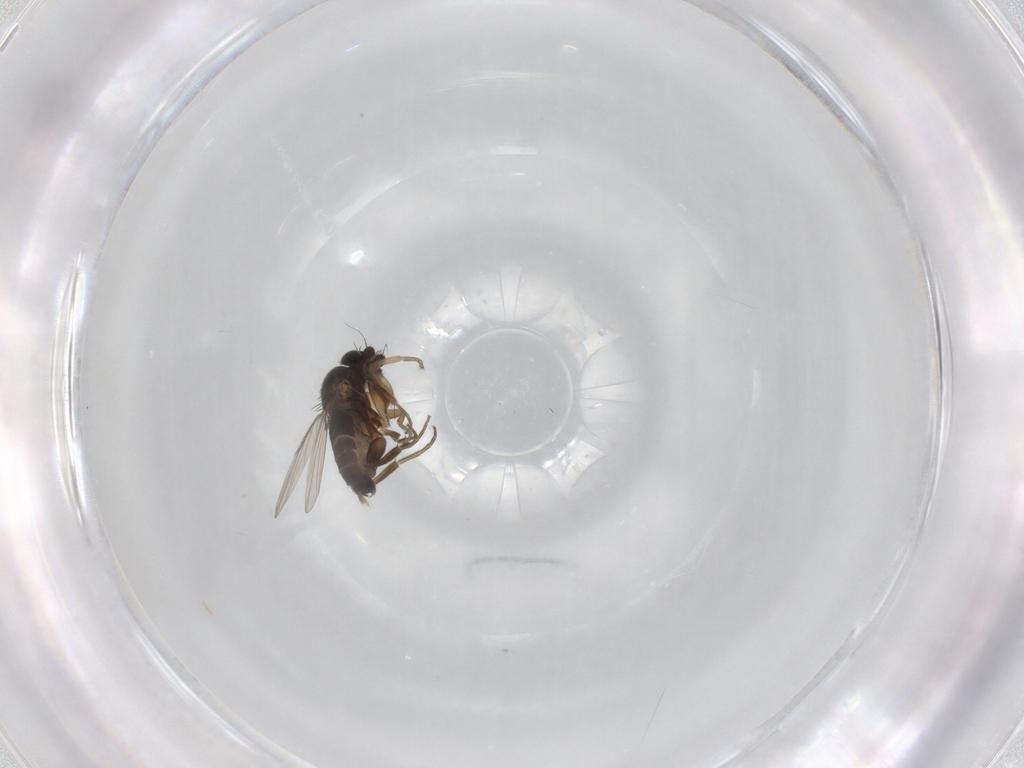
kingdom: Animalia
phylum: Arthropoda
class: Insecta
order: Diptera
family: Phoridae
